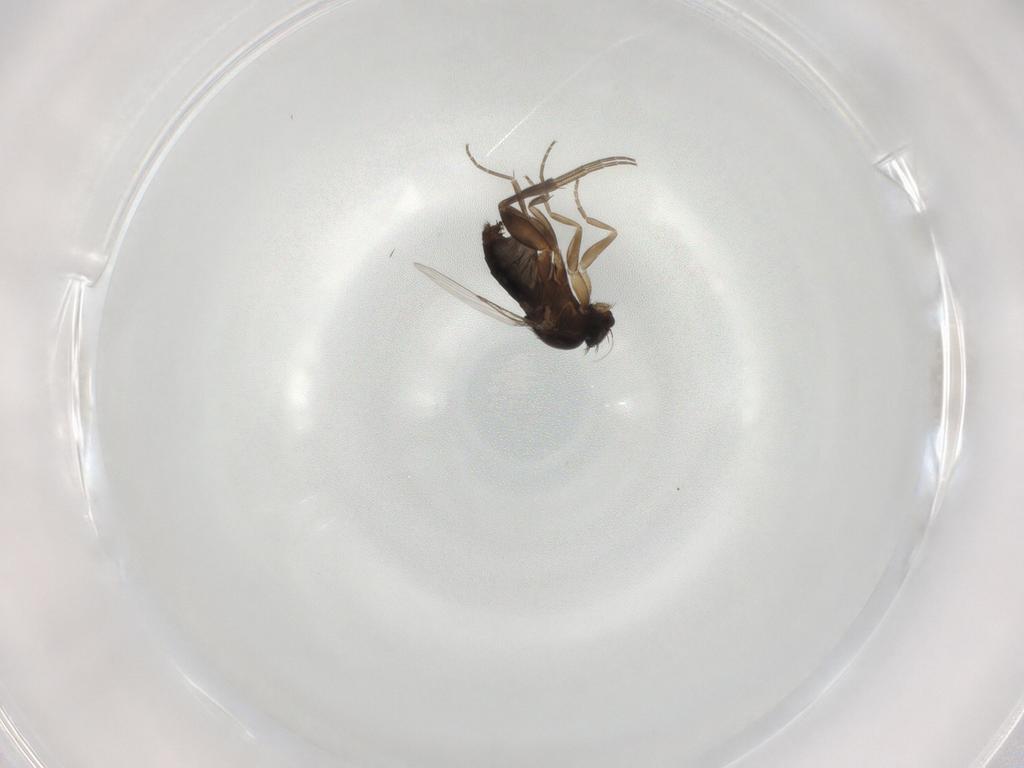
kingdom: Animalia
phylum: Arthropoda
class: Insecta
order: Diptera
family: Phoridae
